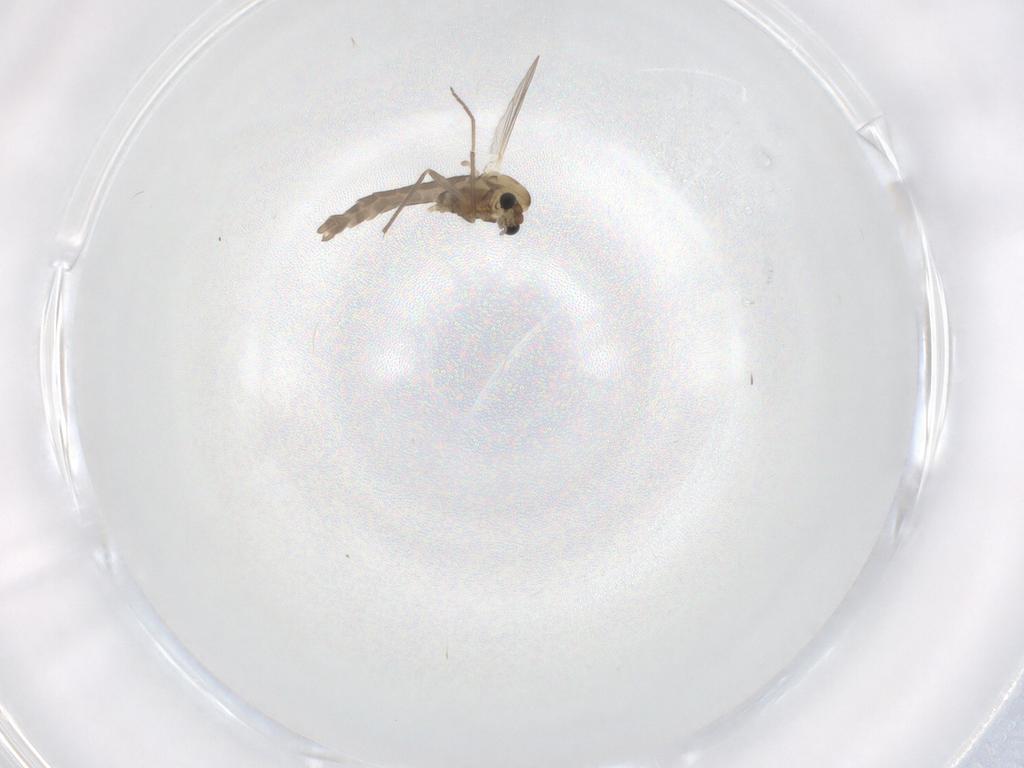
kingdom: Animalia
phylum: Arthropoda
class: Insecta
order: Diptera
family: Chironomidae
